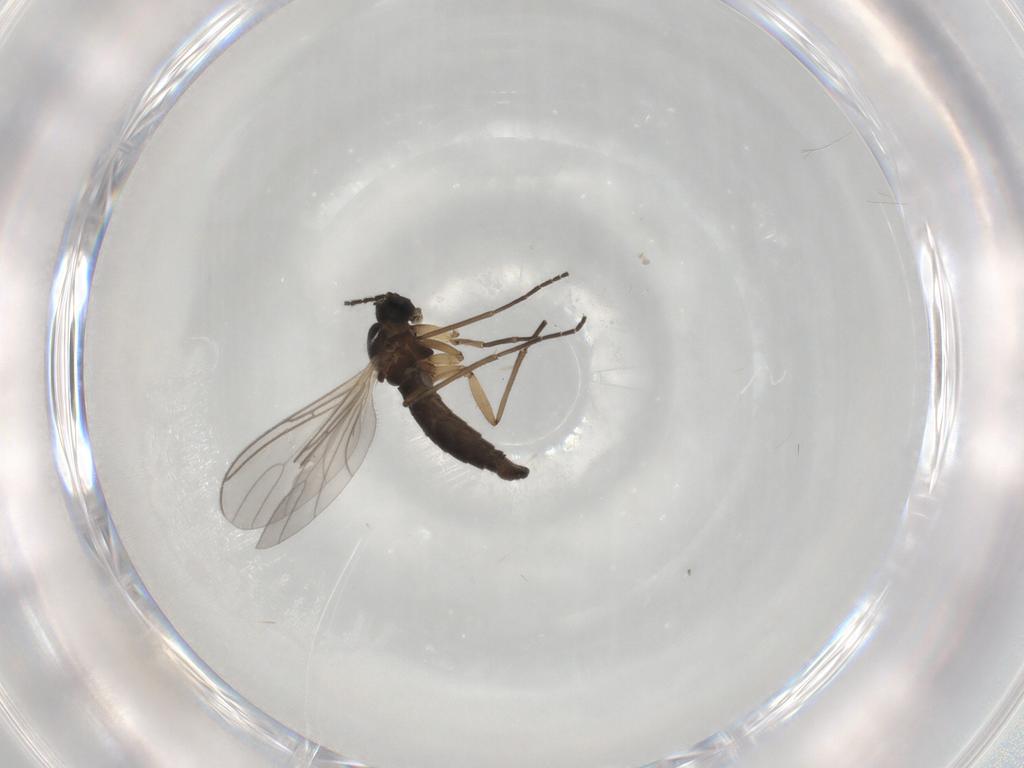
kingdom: Animalia
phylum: Arthropoda
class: Insecta
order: Diptera
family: Sciaridae
